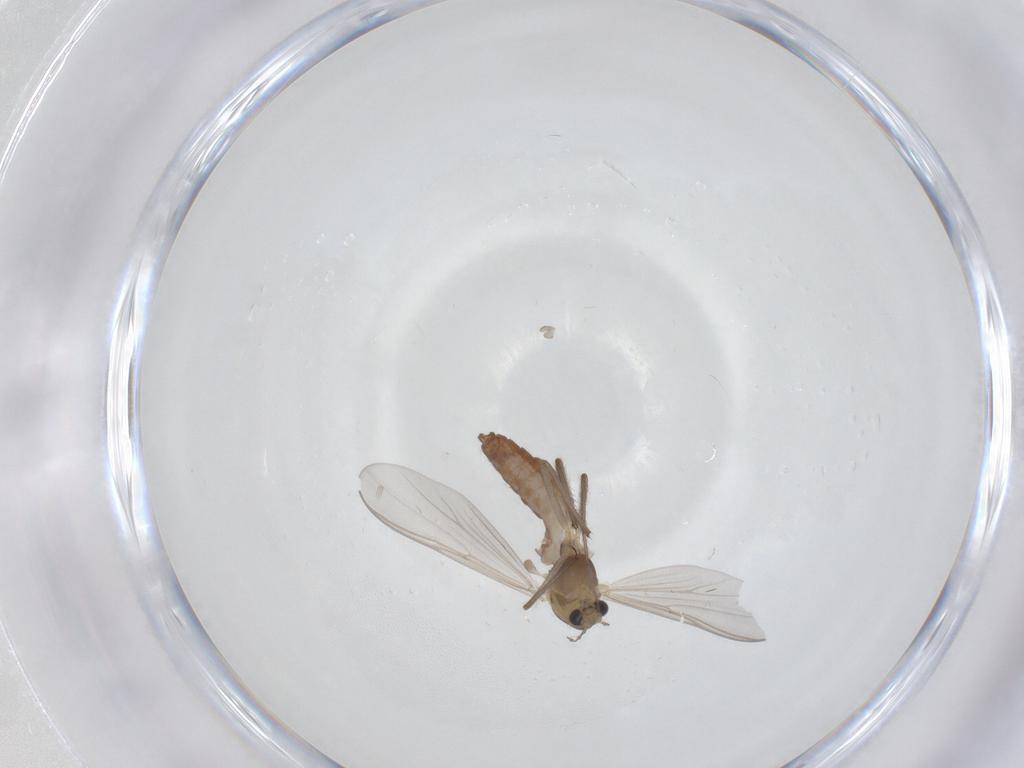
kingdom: Animalia
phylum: Arthropoda
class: Insecta
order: Diptera
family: Chironomidae
